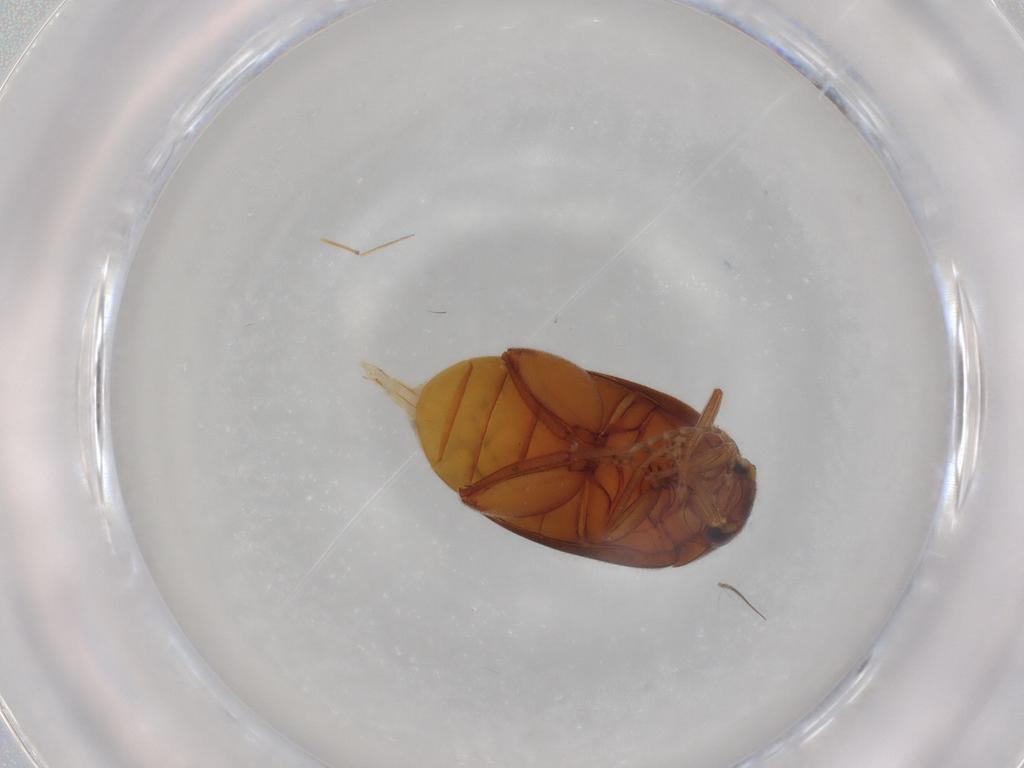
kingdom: Animalia
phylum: Arthropoda
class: Insecta
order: Coleoptera
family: Scirtidae
